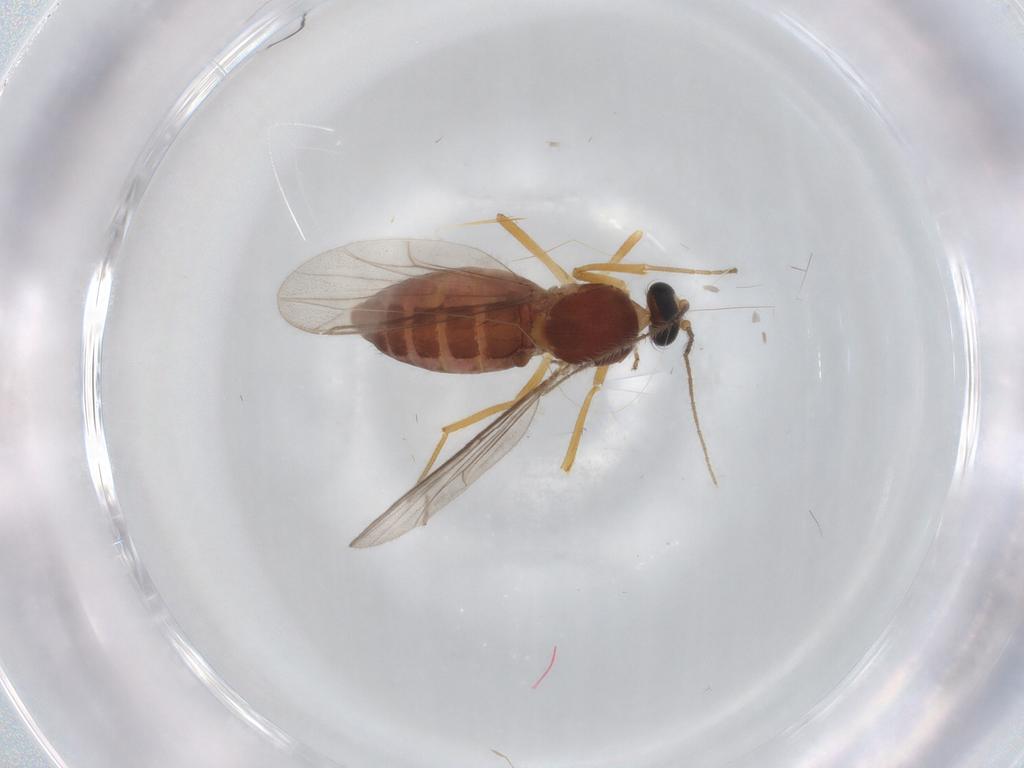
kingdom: Animalia
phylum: Arthropoda
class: Insecta
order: Diptera
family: Ceratopogonidae
